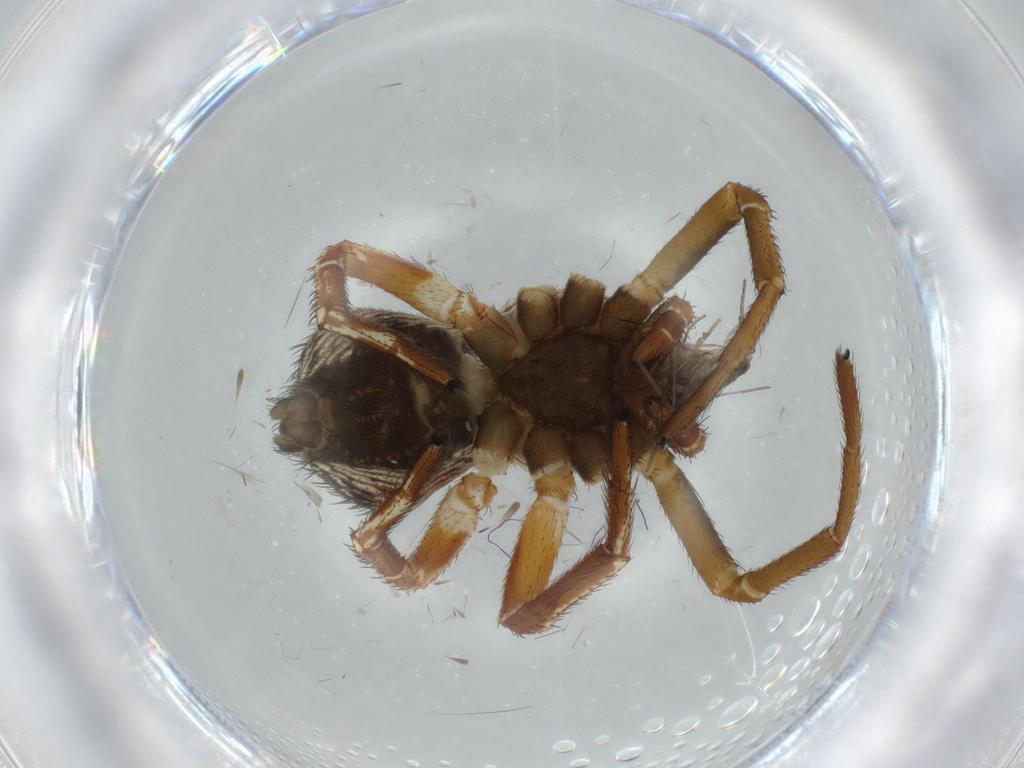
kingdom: Animalia
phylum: Arthropoda
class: Arachnida
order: Araneae
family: Thomisidae
